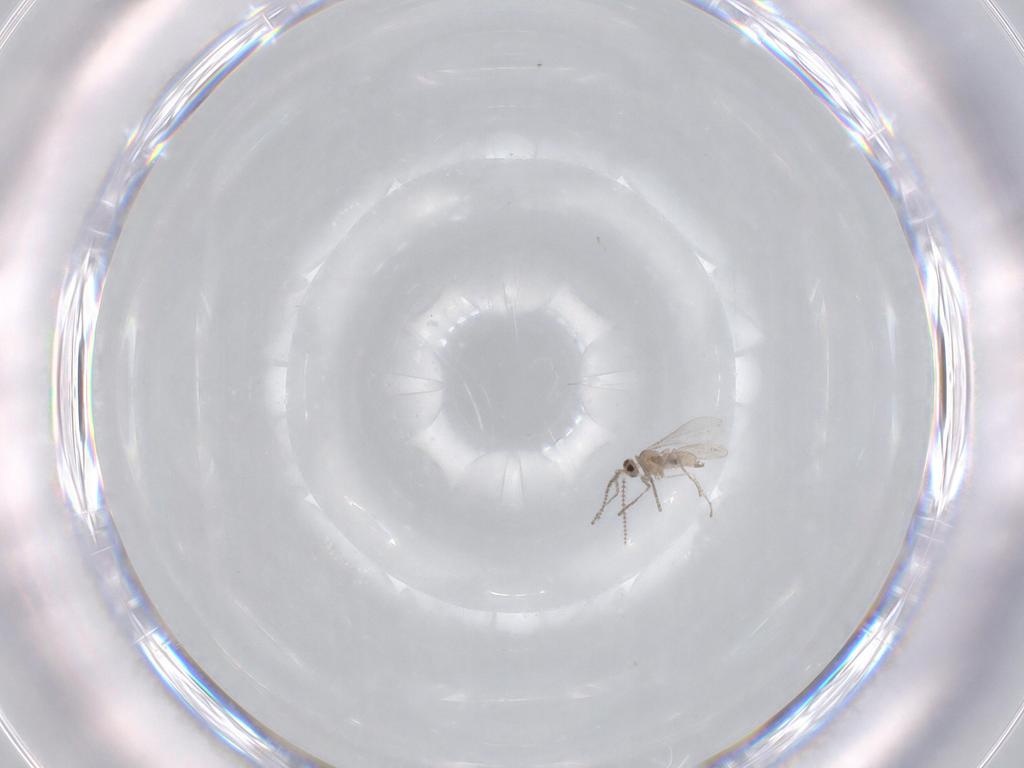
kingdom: Animalia
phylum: Arthropoda
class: Insecta
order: Diptera
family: Cecidomyiidae
